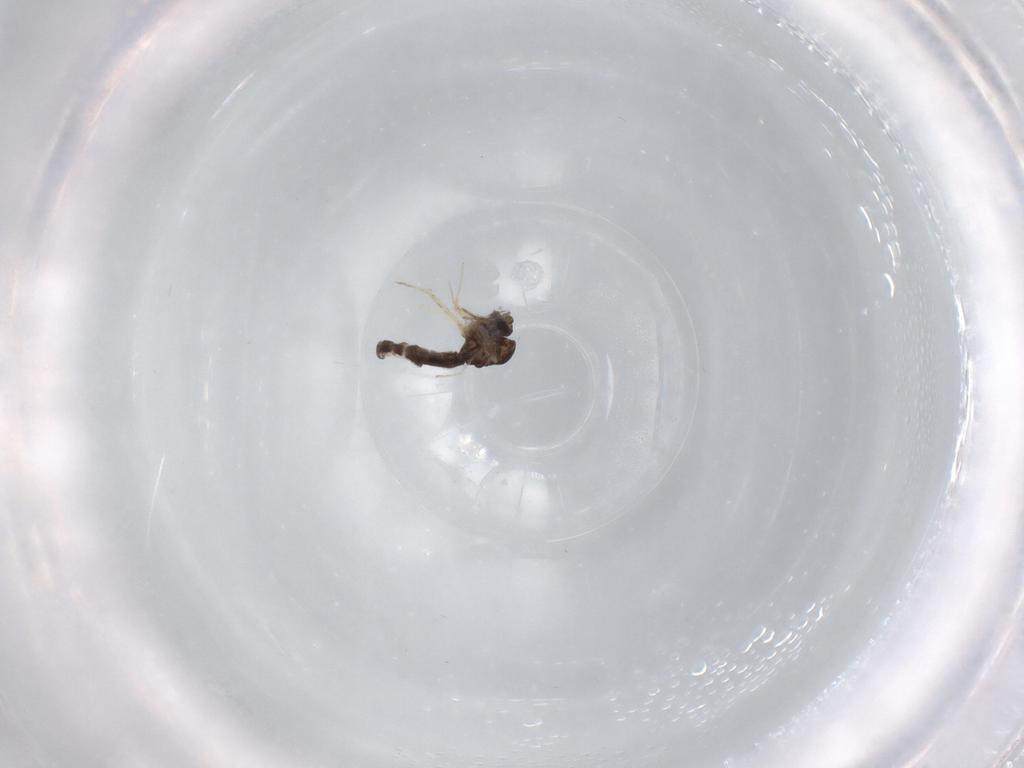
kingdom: Animalia
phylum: Arthropoda
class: Insecta
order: Diptera
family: Chironomidae
